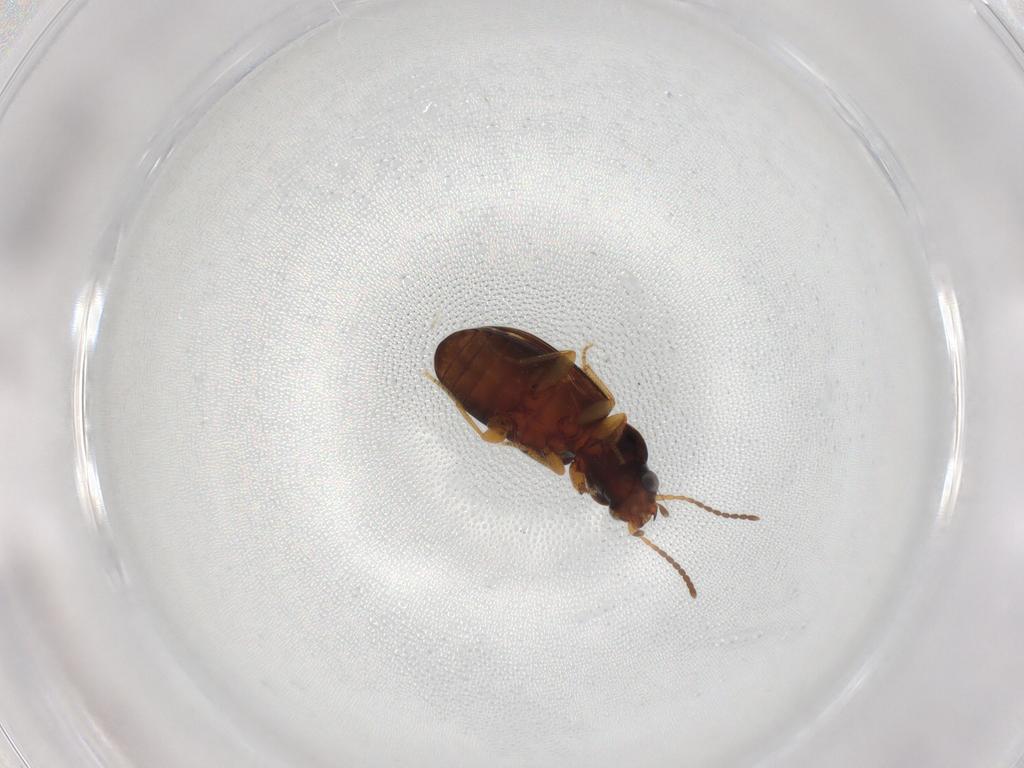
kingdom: Animalia
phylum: Arthropoda
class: Insecta
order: Coleoptera
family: Carabidae
